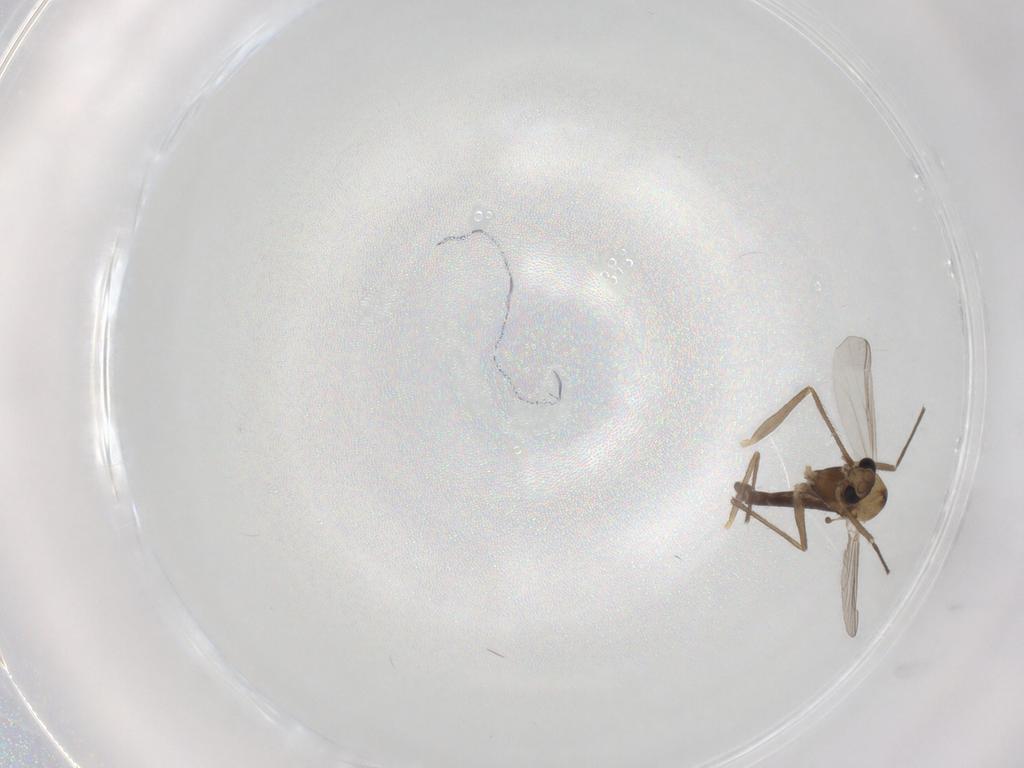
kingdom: Animalia
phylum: Arthropoda
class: Insecta
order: Diptera
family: Chironomidae
